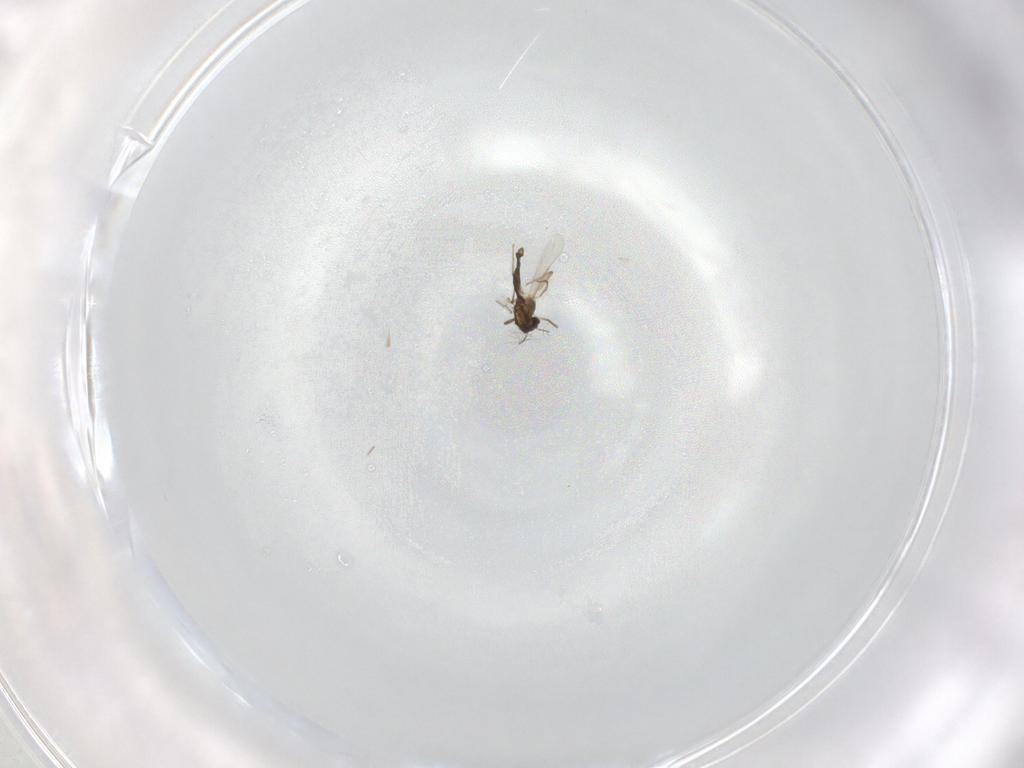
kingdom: Animalia
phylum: Arthropoda
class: Insecta
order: Diptera
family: Chironomidae
